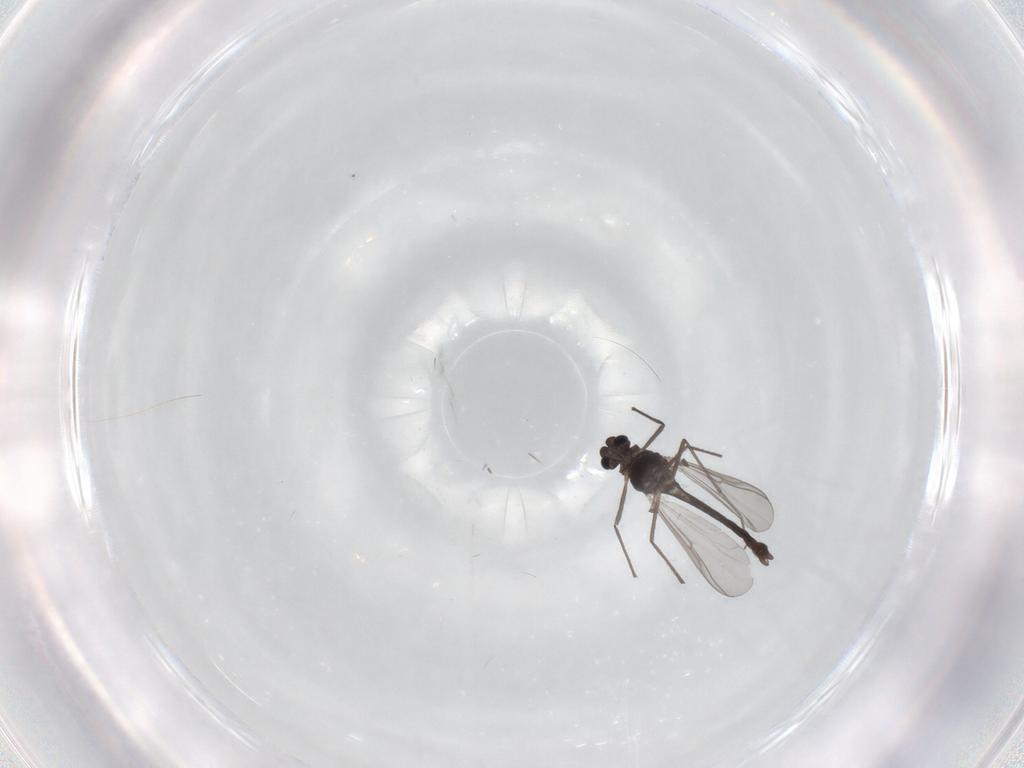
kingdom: Animalia
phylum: Arthropoda
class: Insecta
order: Diptera
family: Chironomidae
